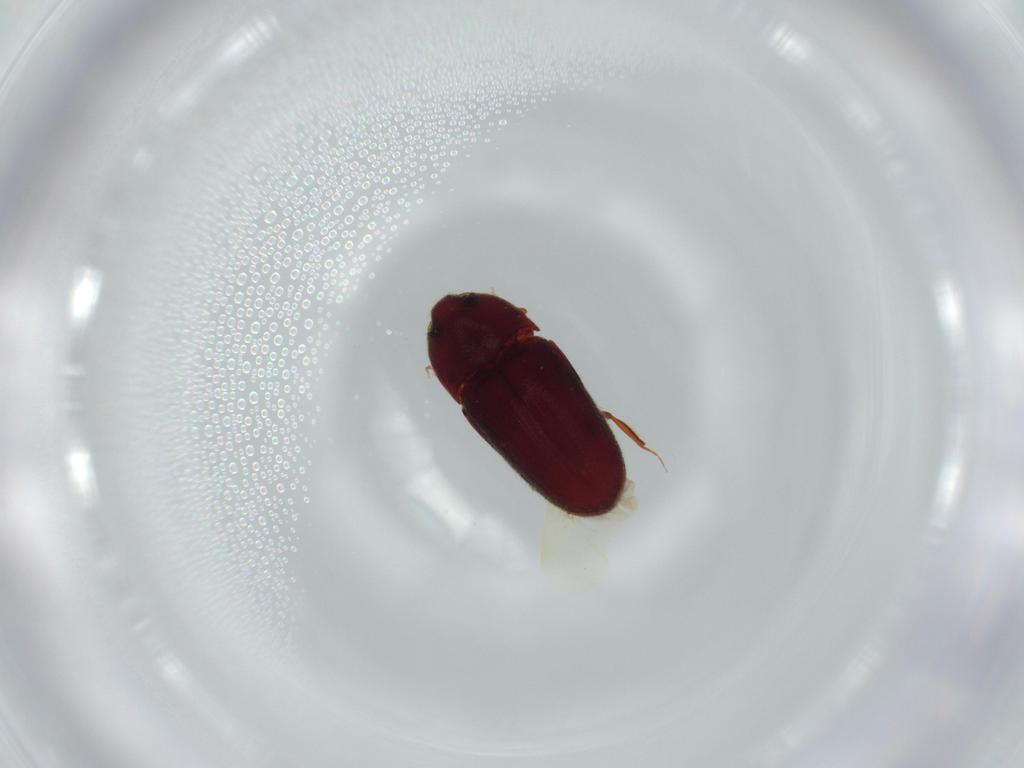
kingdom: Animalia
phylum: Arthropoda
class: Insecta
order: Coleoptera
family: Throscidae
